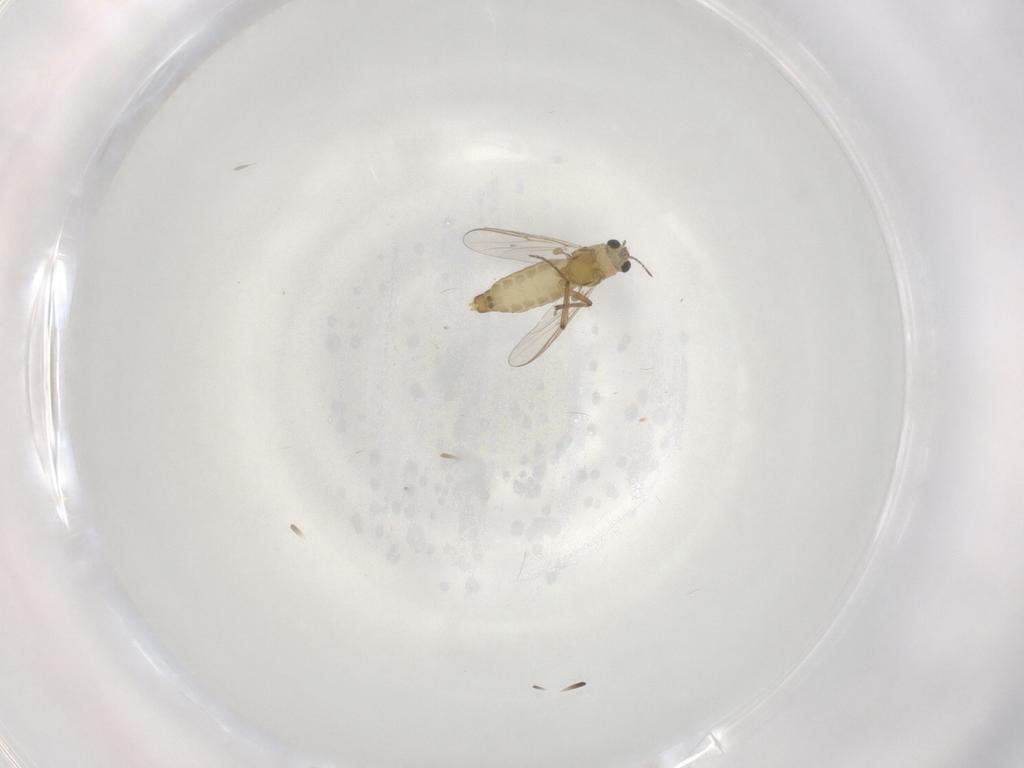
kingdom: Animalia
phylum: Arthropoda
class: Insecta
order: Diptera
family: Chironomidae
